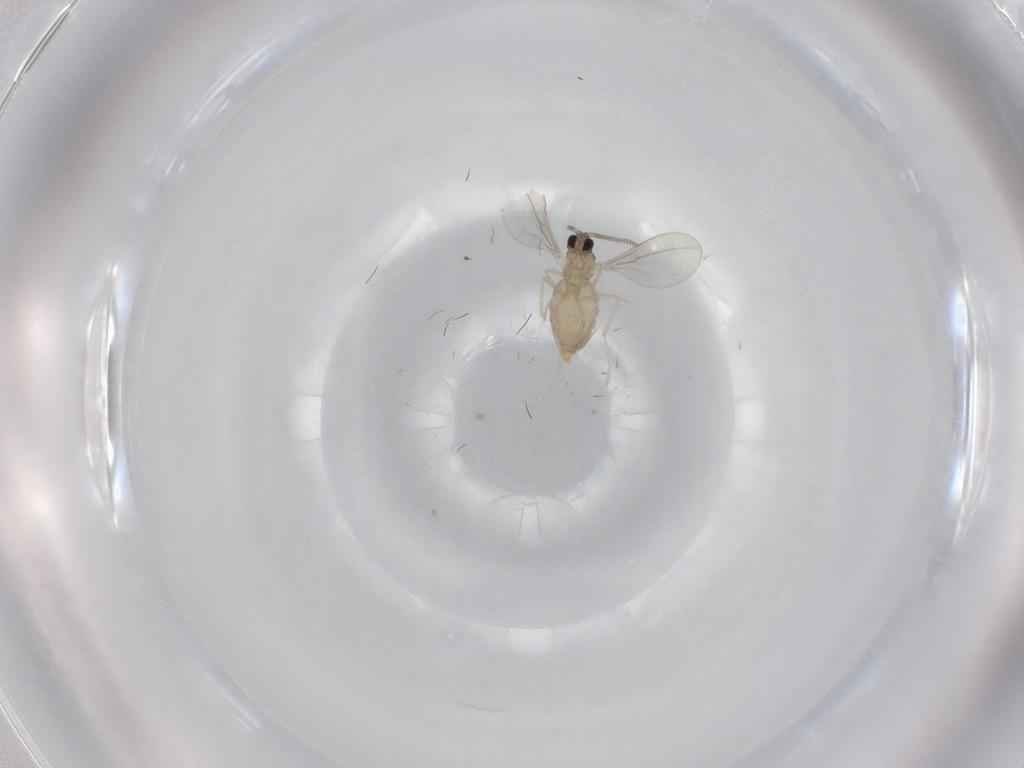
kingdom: Animalia
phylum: Arthropoda
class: Insecta
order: Diptera
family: Cecidomyiidae
